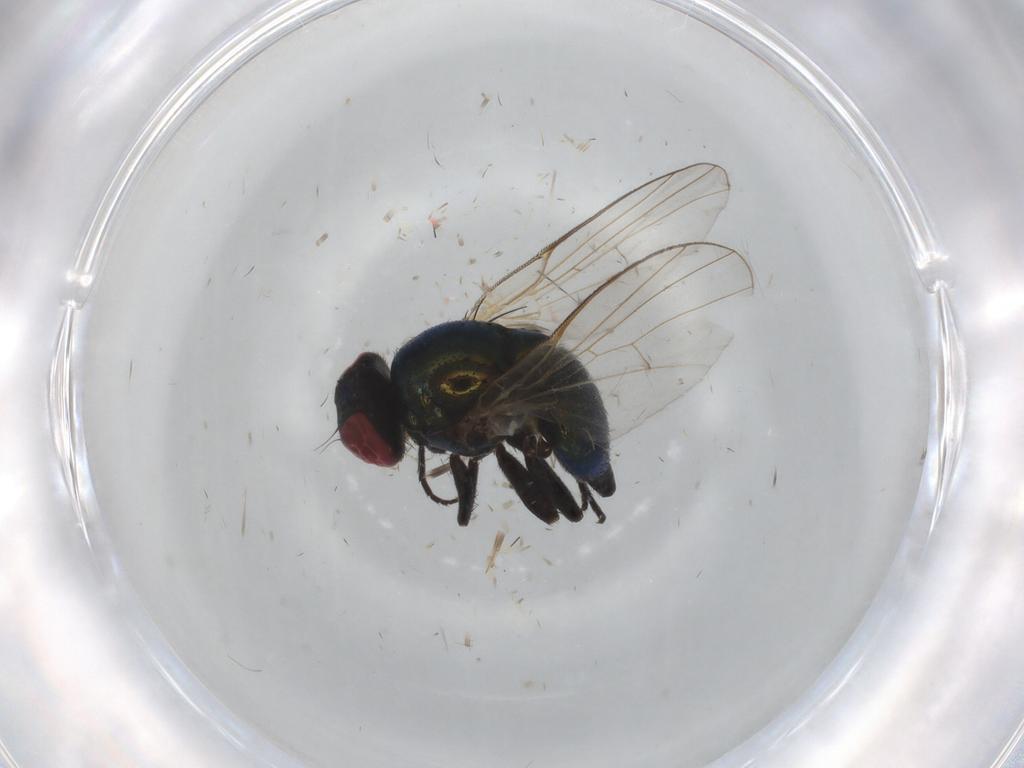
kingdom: Animalia
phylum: Arthropoda
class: Insecta
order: Diptera
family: Agromyzidae
